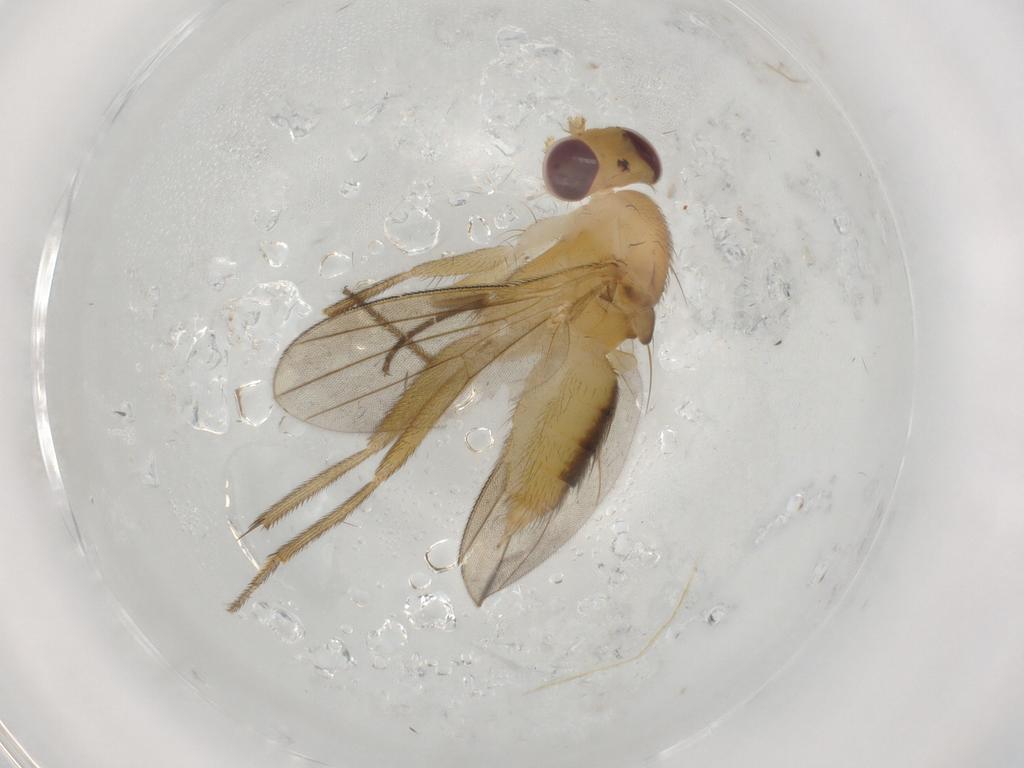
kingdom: Animalia
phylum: Arthropoda
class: Insecta
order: Diptera
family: Clusiidae
